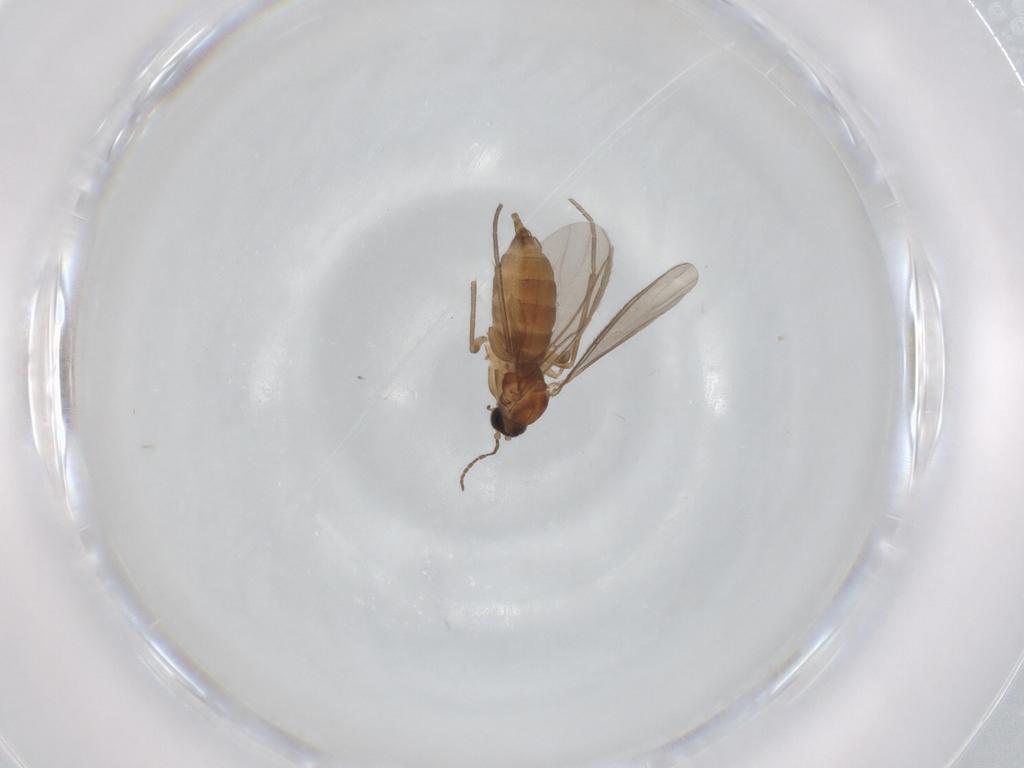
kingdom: Animalia
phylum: Arthropoda
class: Insecta
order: Diptera
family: Sciaridae
